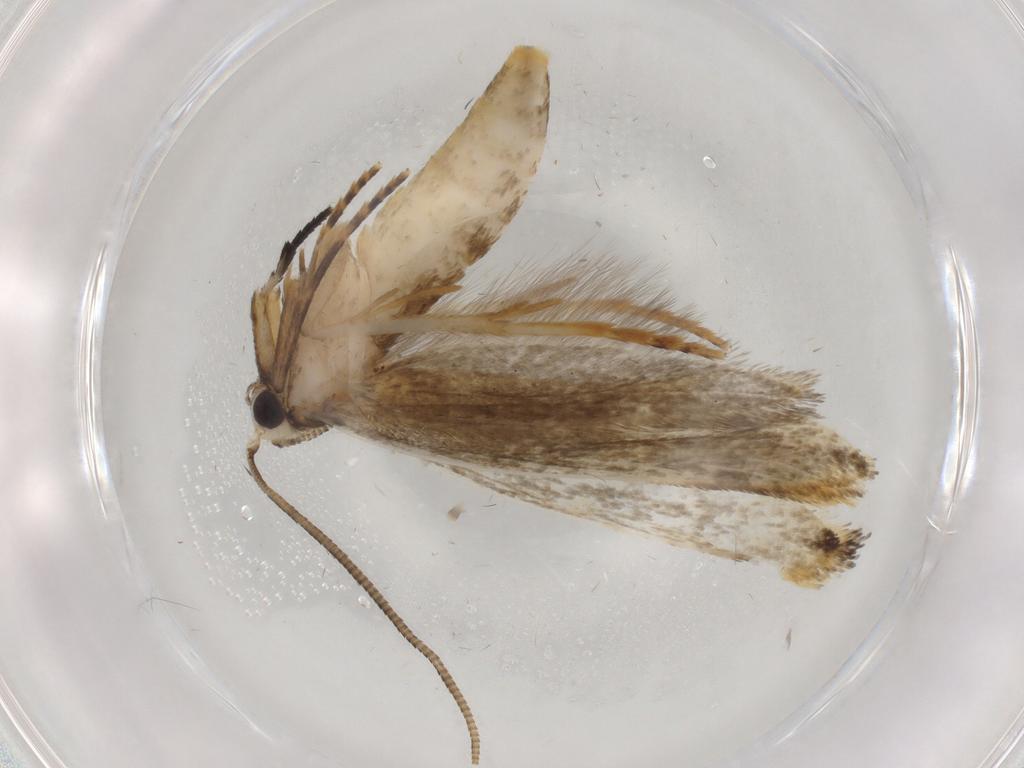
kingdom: Animalia
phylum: Arthropoda
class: Insecta
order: Lepidoptera
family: Tineidae
